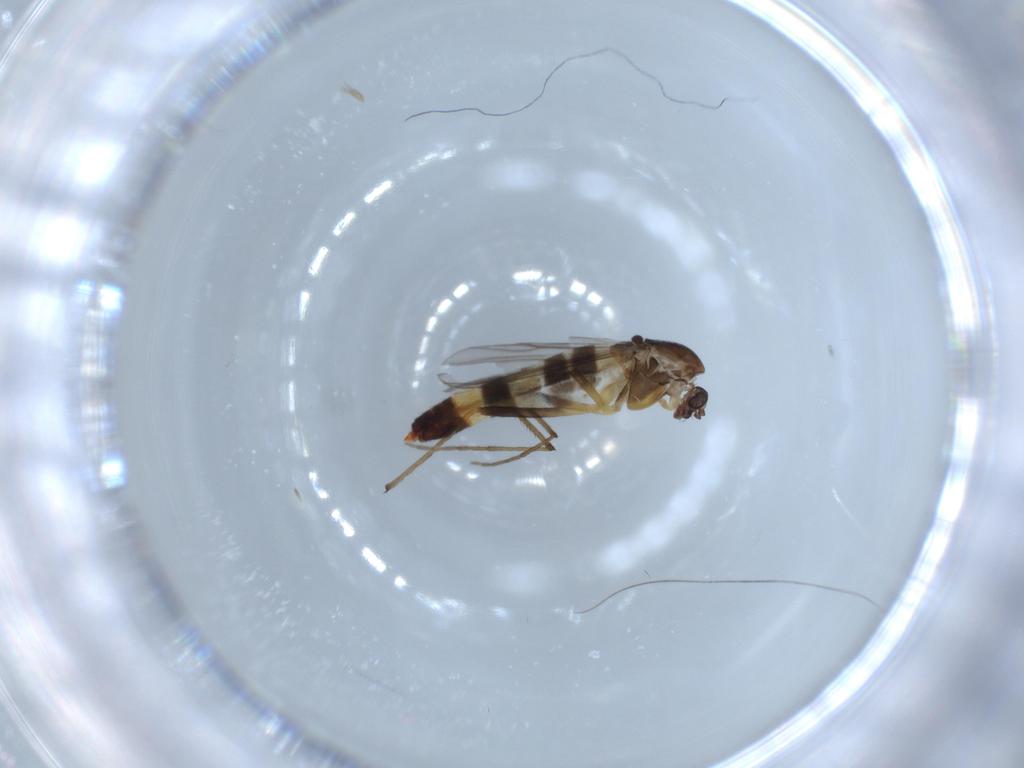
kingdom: Animalia
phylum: Arthropoda
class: Insecta
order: Diptera
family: Chironomidae
